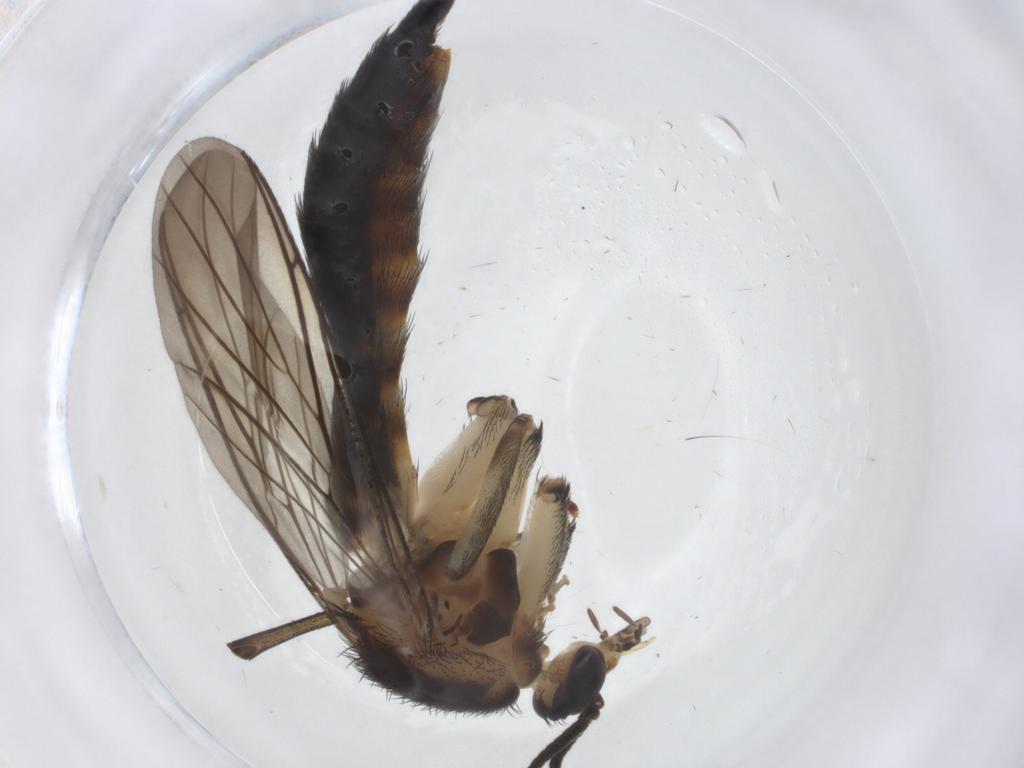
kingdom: Animalia
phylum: Arthropoda
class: Insecta
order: Diptera
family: Keroplatidae
